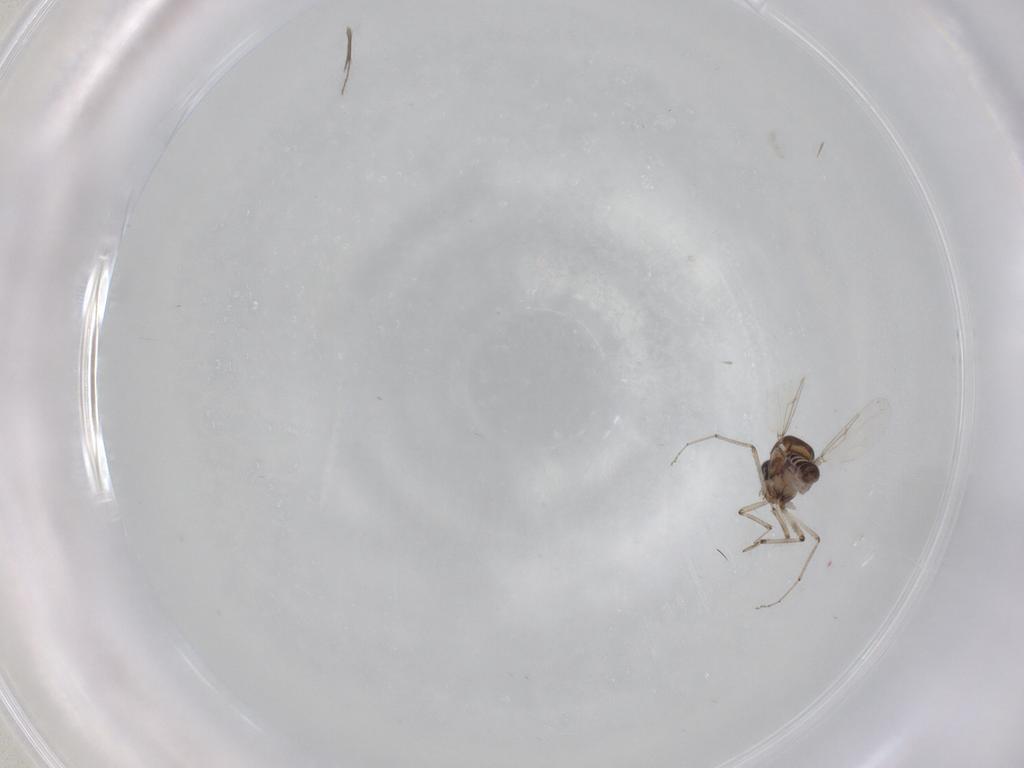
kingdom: Animalia
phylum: Arthropoda
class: Insecta
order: Diptera
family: Ceratopogonidae
